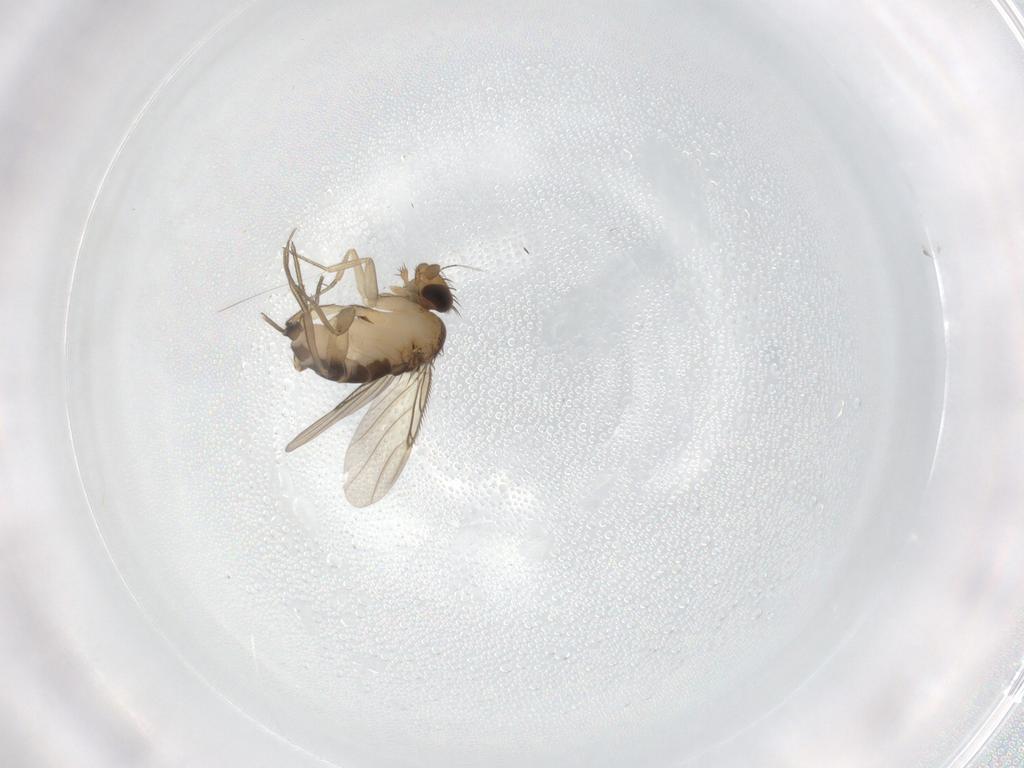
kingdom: Animalia
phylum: Arthropoda
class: Insecta
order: Diptera
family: Phoridae
